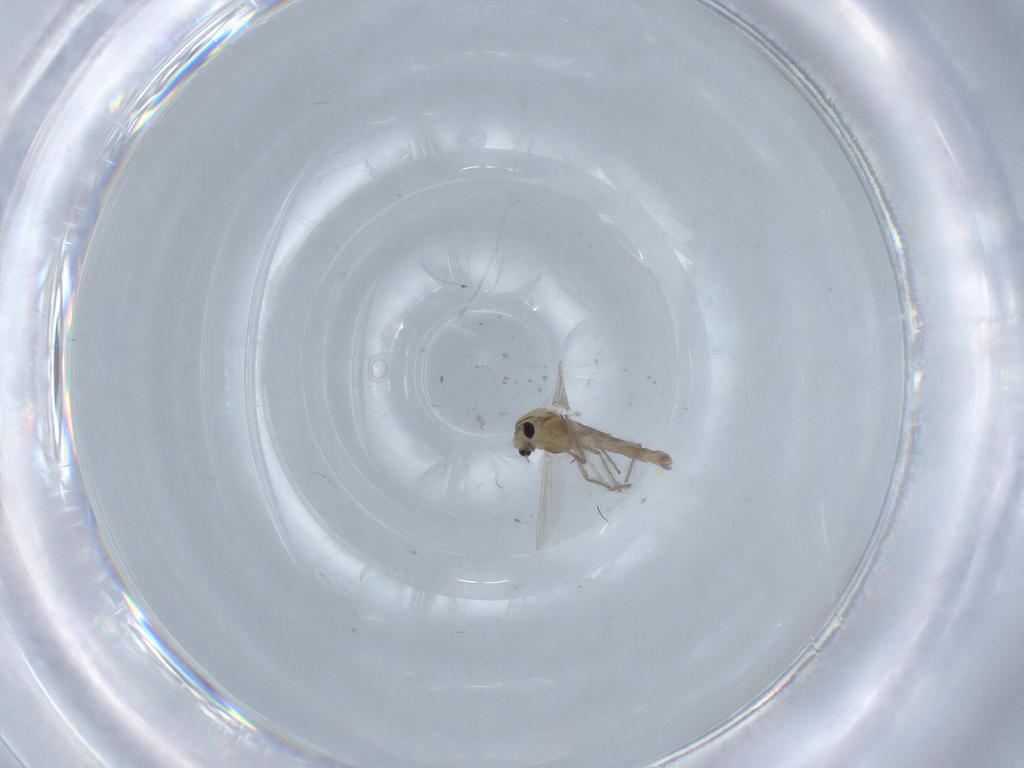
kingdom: Animalia
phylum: Arthropoda
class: Insecta
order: Diptera
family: Chironomidae
